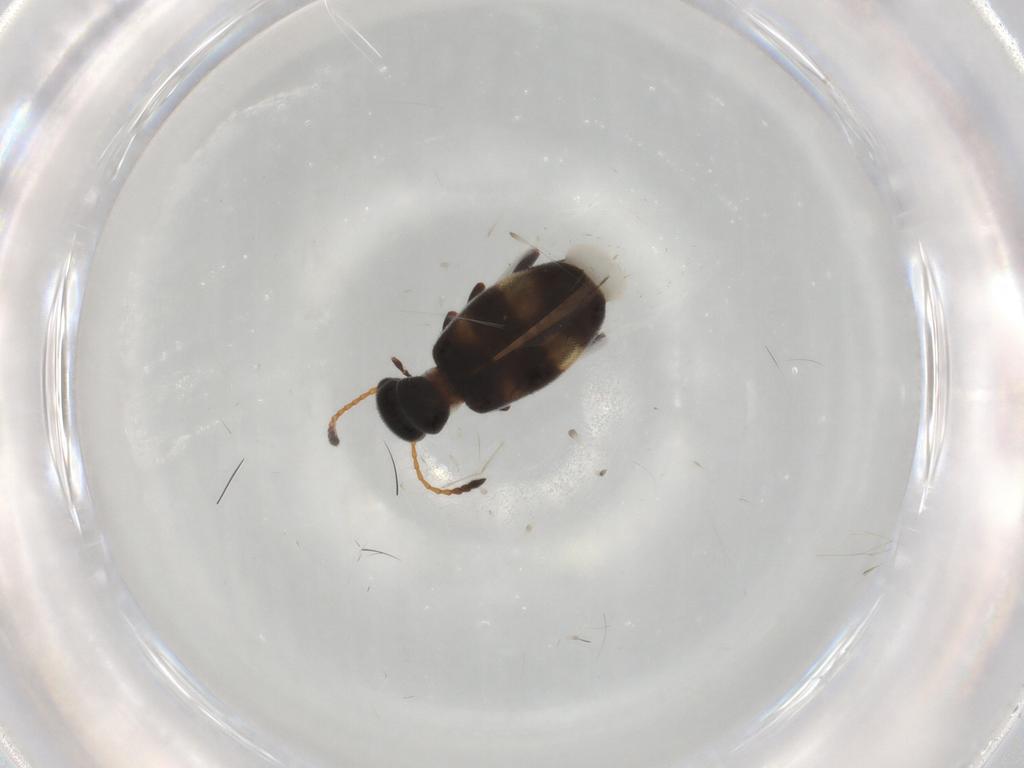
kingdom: Animalia
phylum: Arthropoda
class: Insecta
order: Coleoptera
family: Anthicidae
